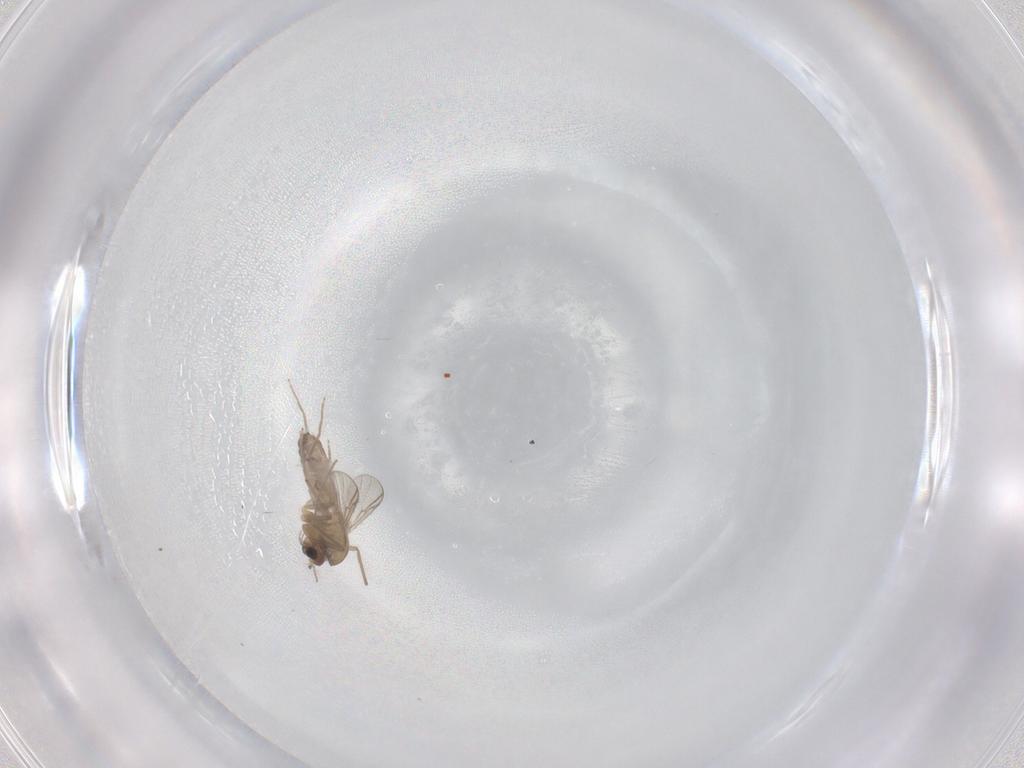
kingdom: Animalia
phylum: Arthropoda
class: Insecta
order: Diptera
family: Chironomidae
